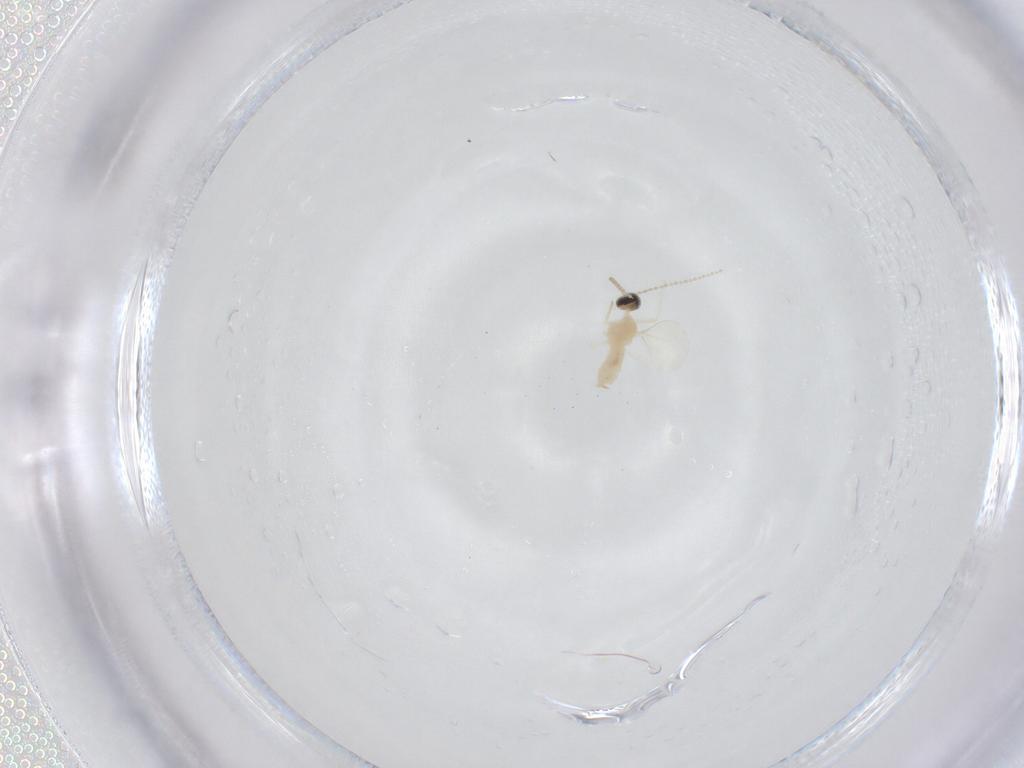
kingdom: Animalia
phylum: Arthropoda
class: Insecta
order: Diptera
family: Cecidomyiidae
